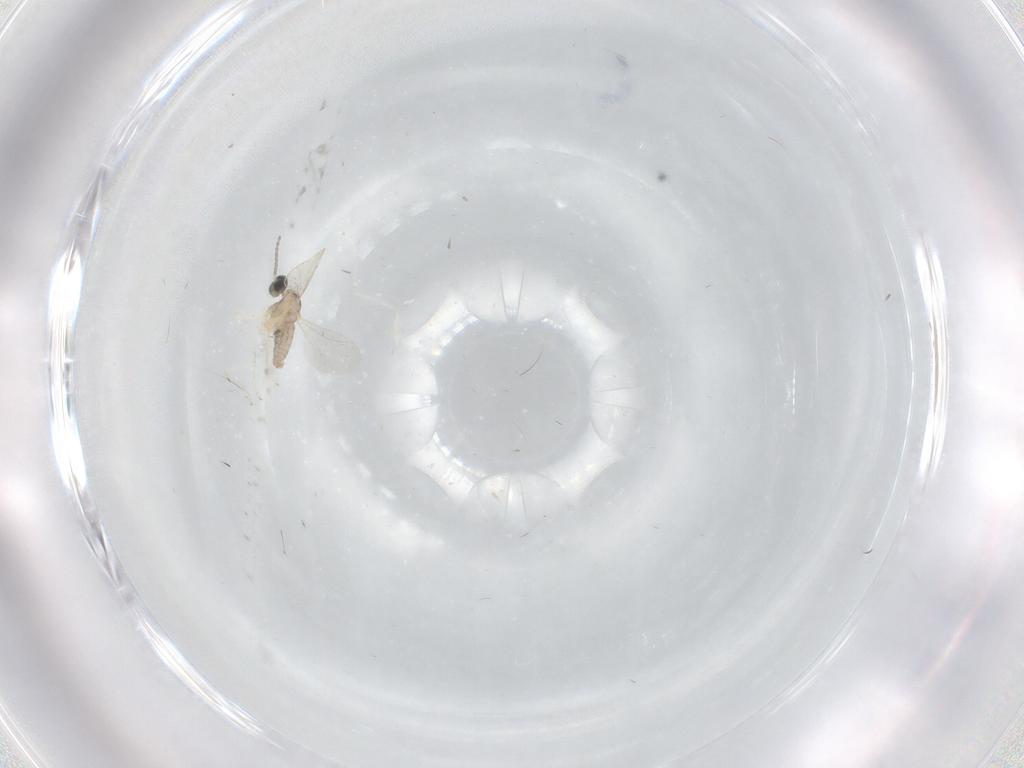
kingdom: Animalia
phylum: Arthropoda
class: Insecta
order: Diptera
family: Cecidomyiidae
